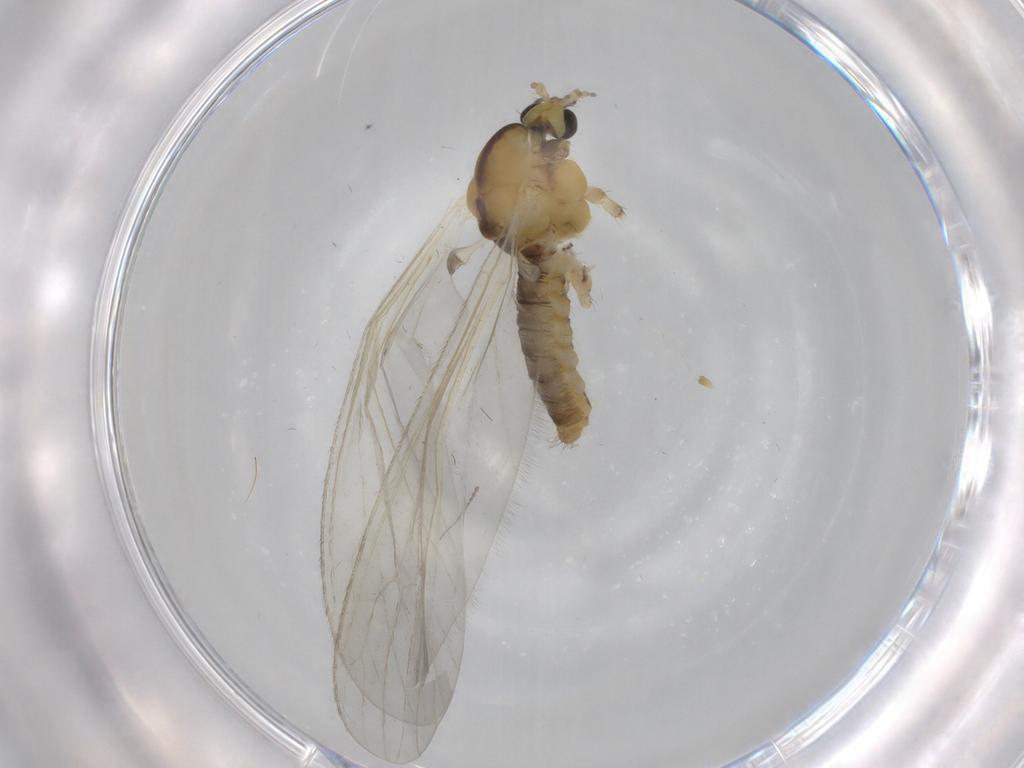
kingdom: Animalia
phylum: Arthropoda
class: Insecta
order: Diptera
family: Limoniidae
